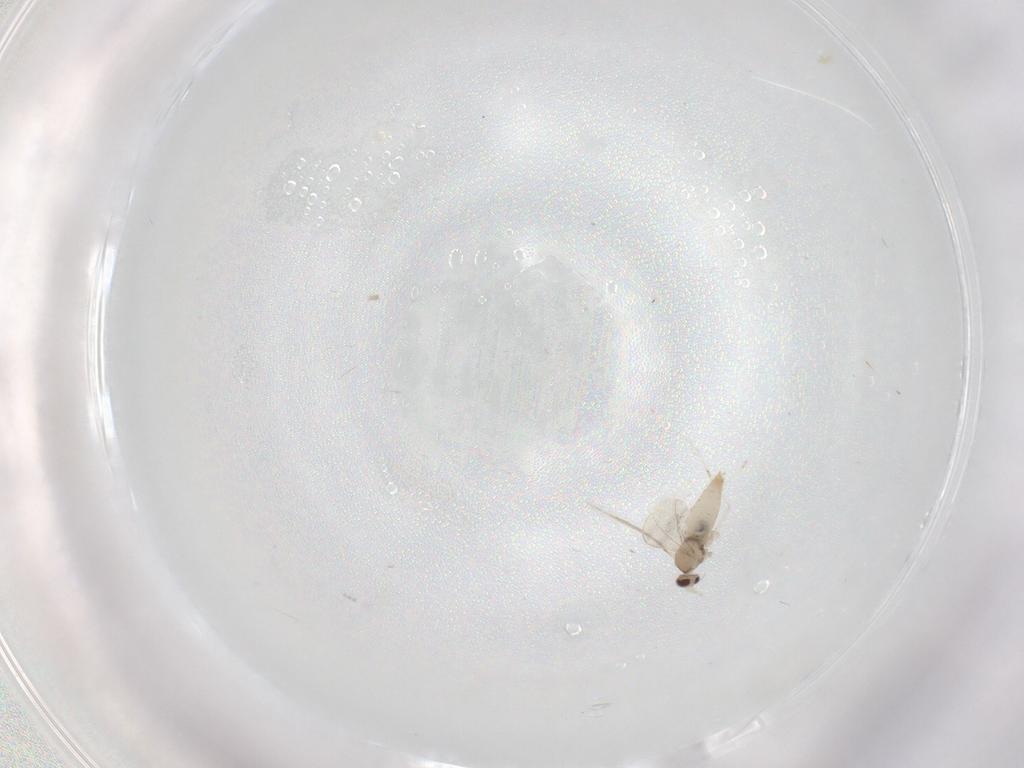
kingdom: Animalia
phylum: Arthropoda
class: Insecta
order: Diptera
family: Cecidomyiidae
